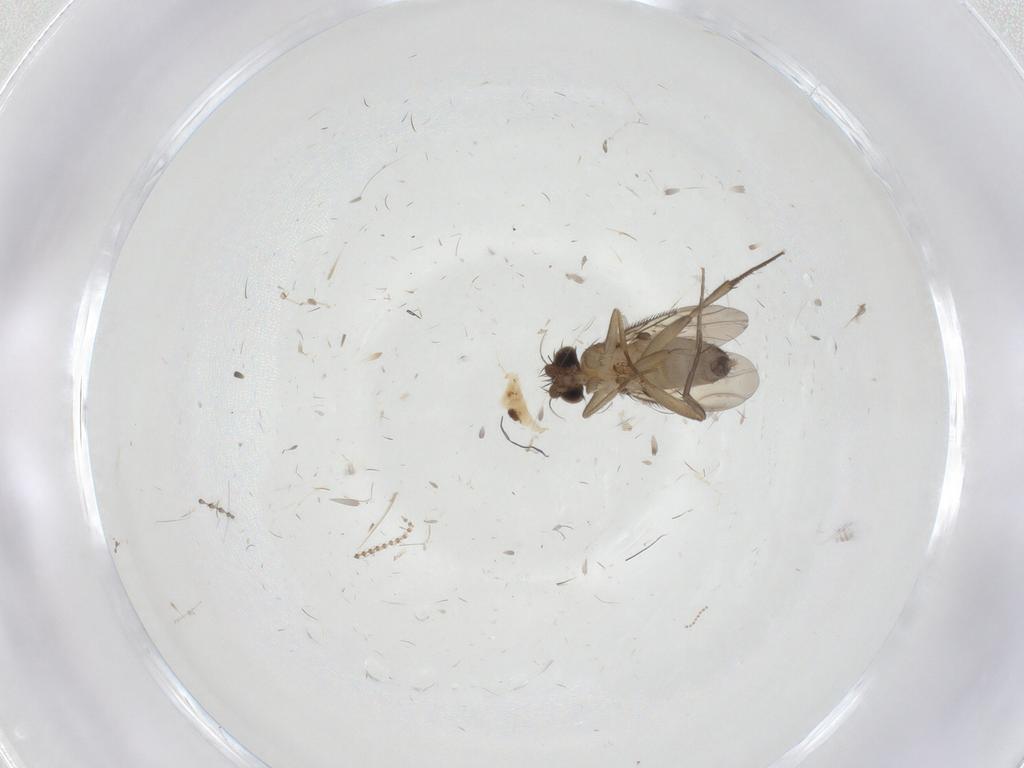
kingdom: Animalia
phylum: Arthropoda
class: Insecta
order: Diptera
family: Phoridae
